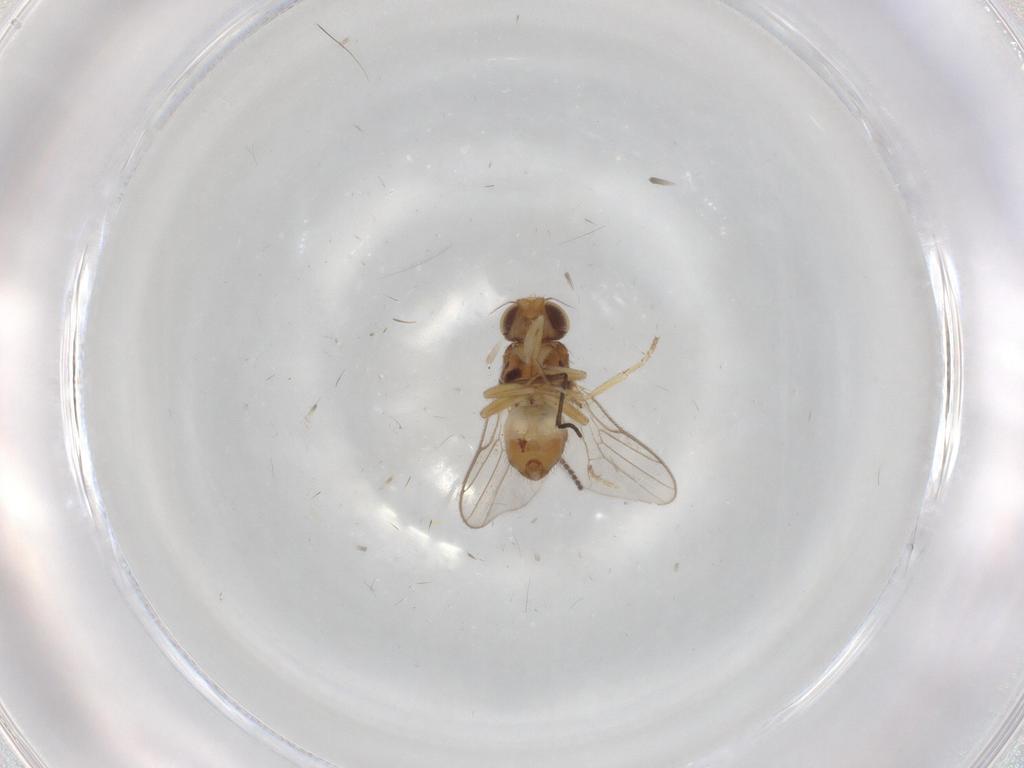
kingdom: Animalia
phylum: Arthropoda
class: Insecta
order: Diptera
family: Chloropidae
